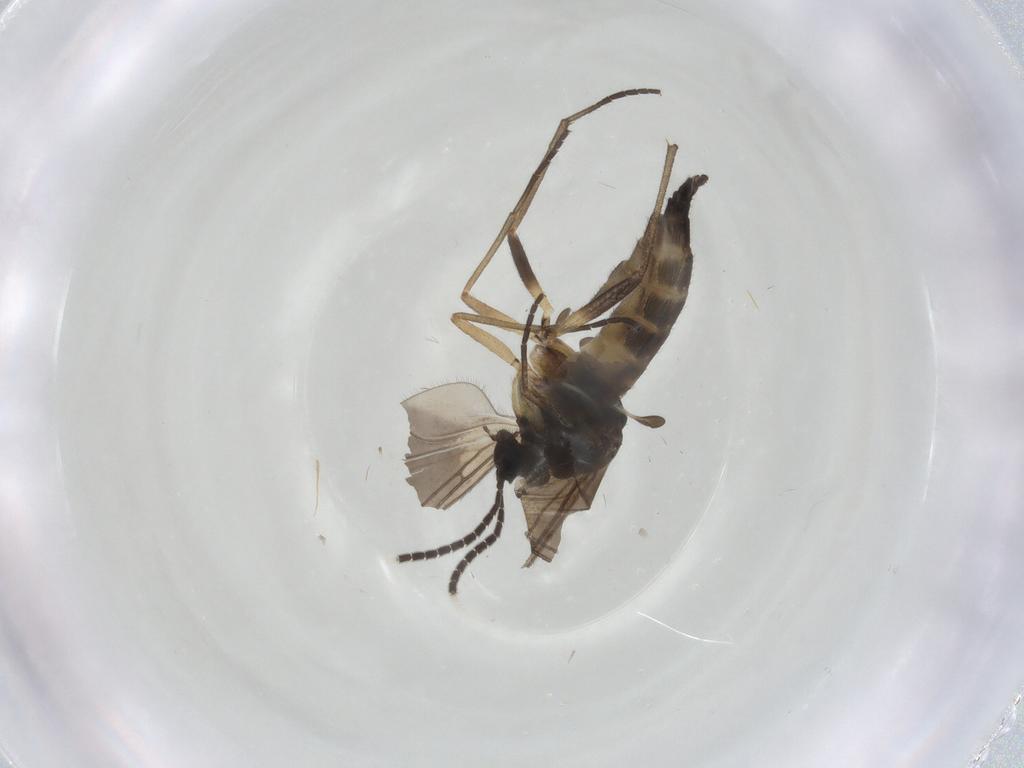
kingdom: Animalia
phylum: Arthropoda
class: Insecta
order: Diptera
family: Sciaridae
